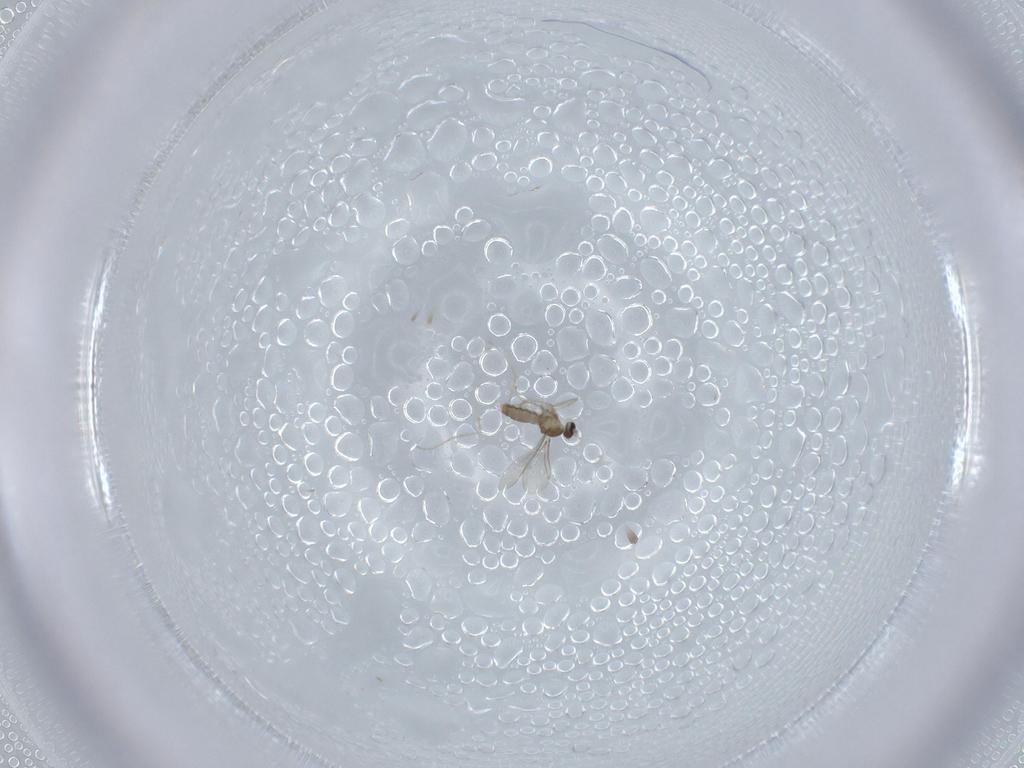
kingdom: Animalia
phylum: Arthropoda
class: Insecta
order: Diptera
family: Cecidomyiidae
